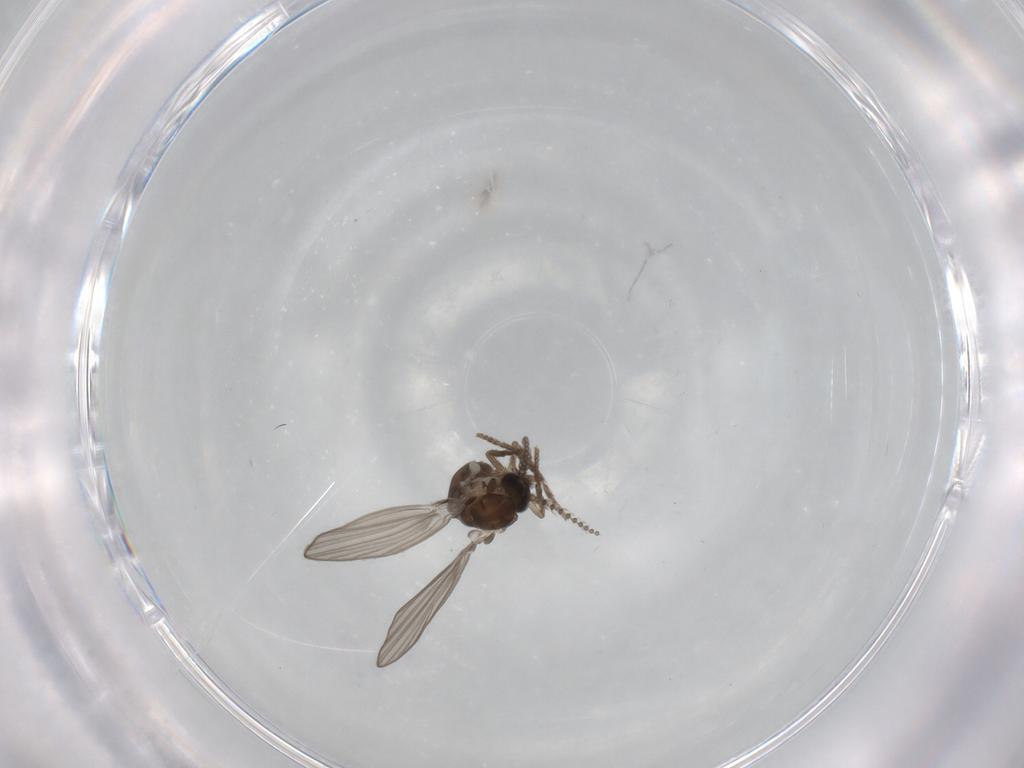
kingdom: Animalia
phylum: Arthropoda
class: Insecta
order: Diptera
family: Psychodidae
